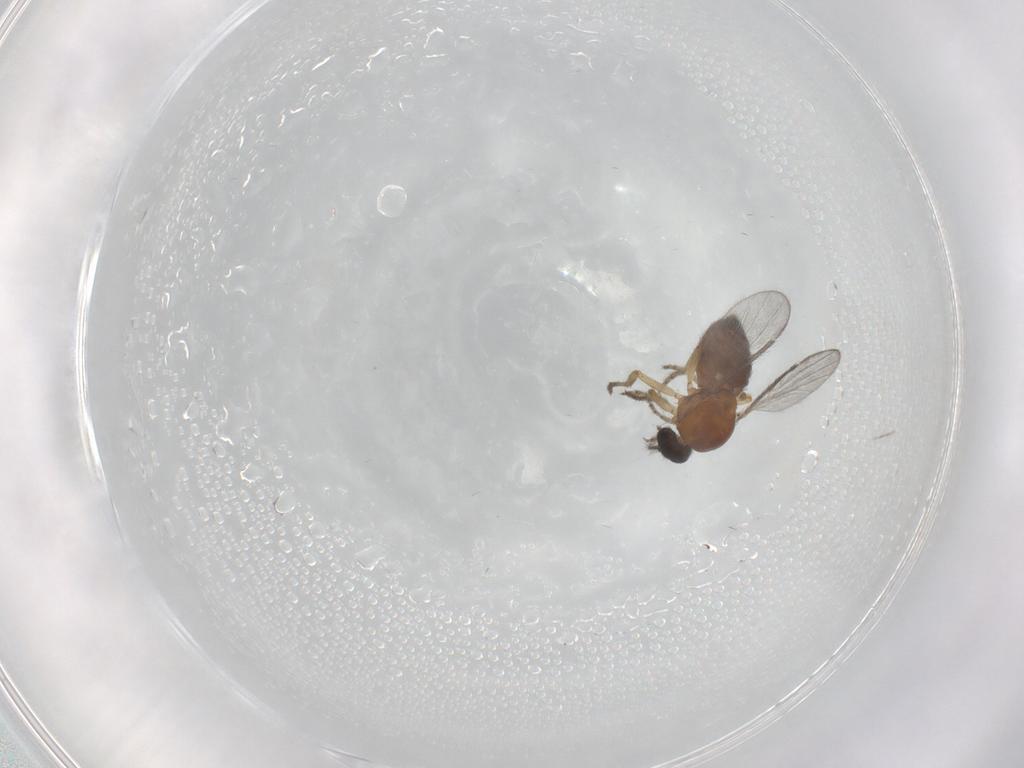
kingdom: Animalia
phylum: Arthropoda
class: Insecta
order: Diptera
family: Ceratopogonidae
